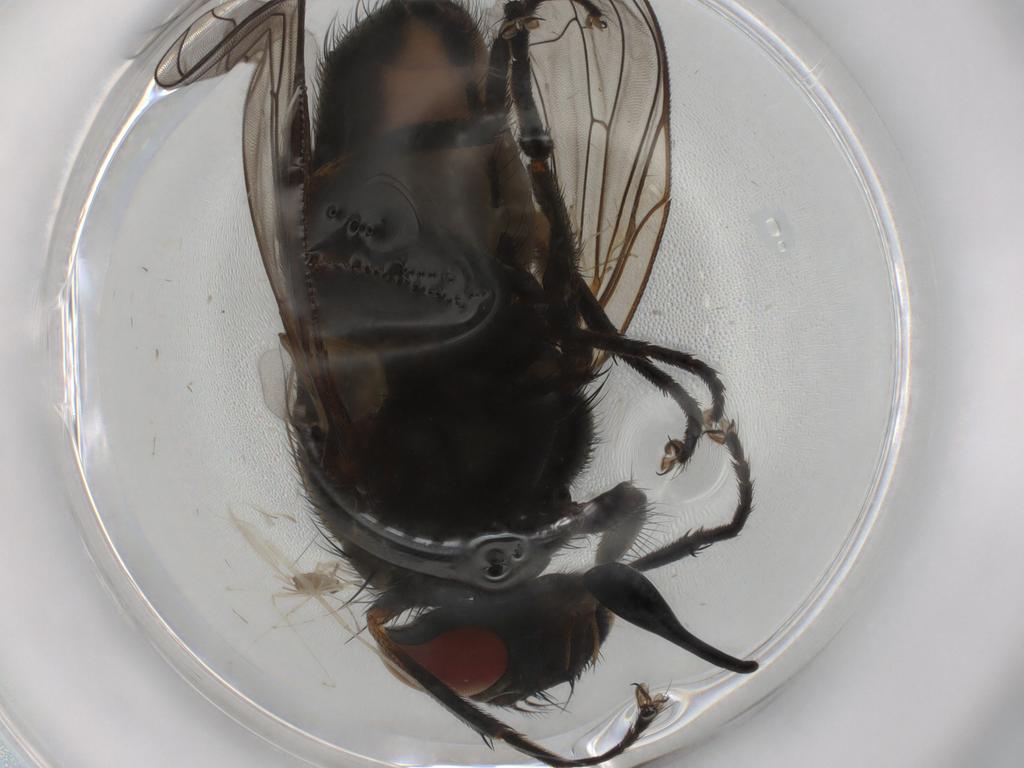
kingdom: Animalia
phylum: Arthropoda
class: Insecta
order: Diptera
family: Muscidae
